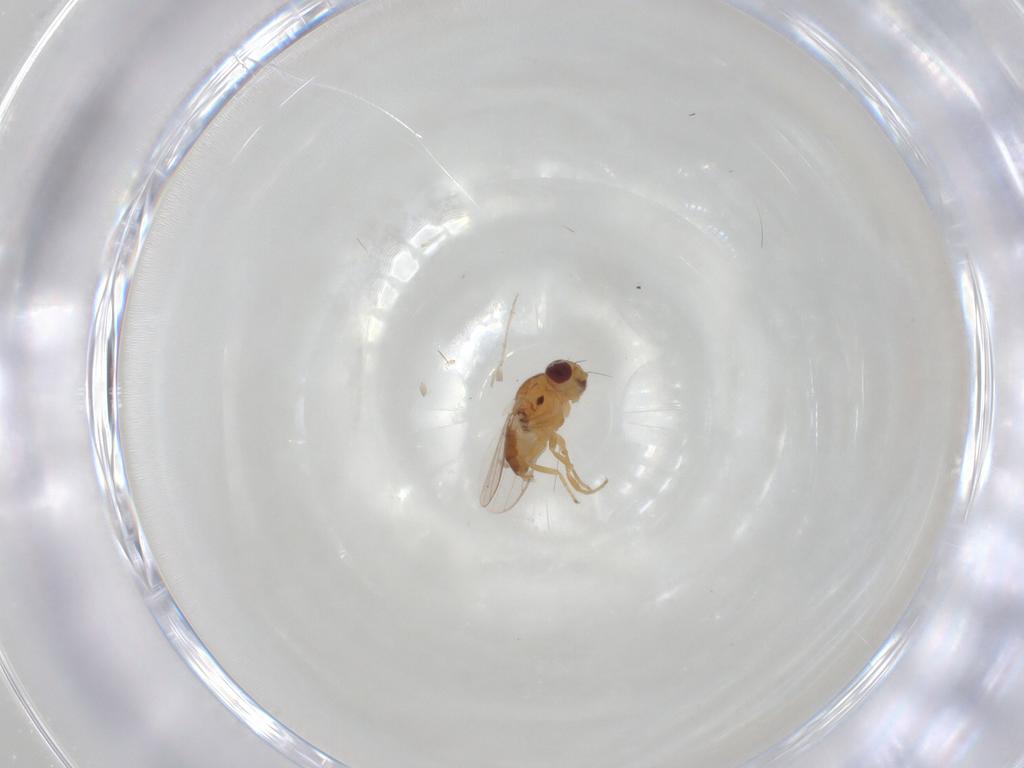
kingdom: Animalia
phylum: Arthropoda
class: Insecta
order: Diptera
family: Chloropidae
